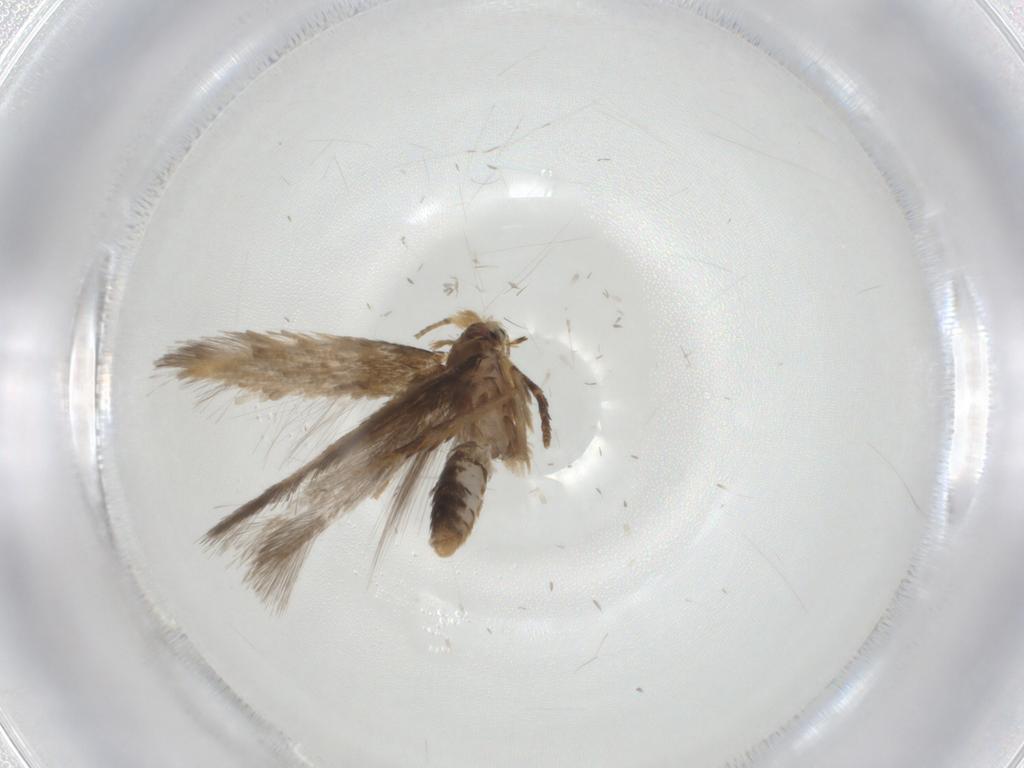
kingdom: Animalia
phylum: Arthropoda
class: Insecta
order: Lepidoptera
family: Nepticulidae
